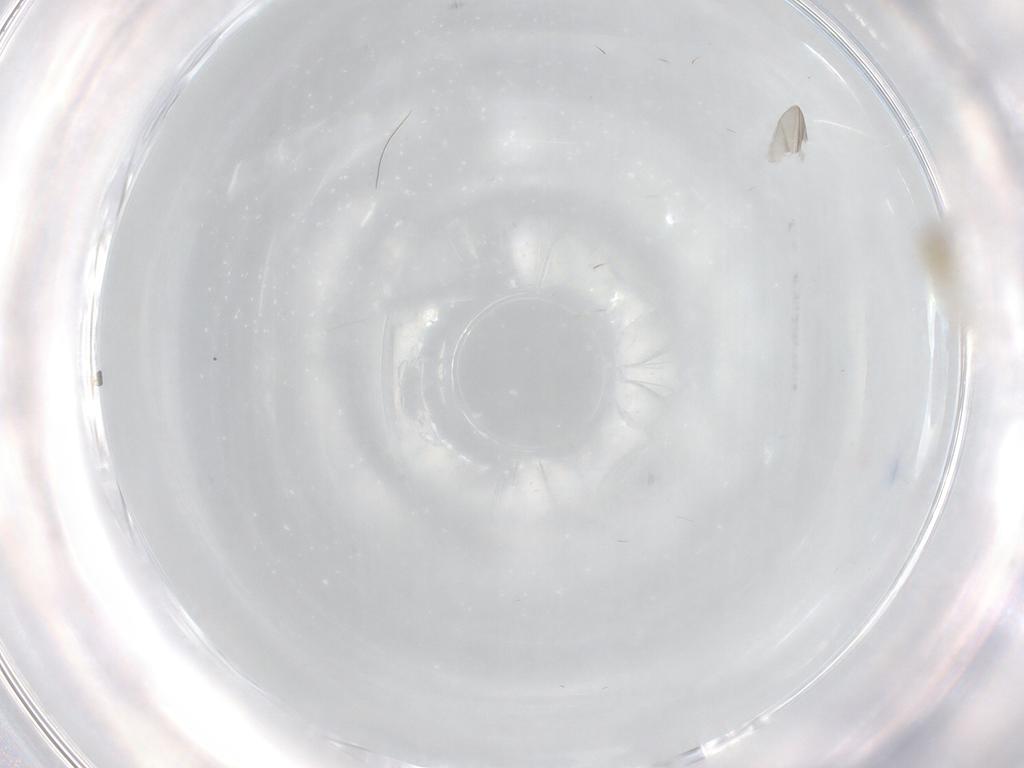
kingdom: Animalia
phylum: Arthropoda
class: Insecta
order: Diptera
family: Cecidomyiidae
